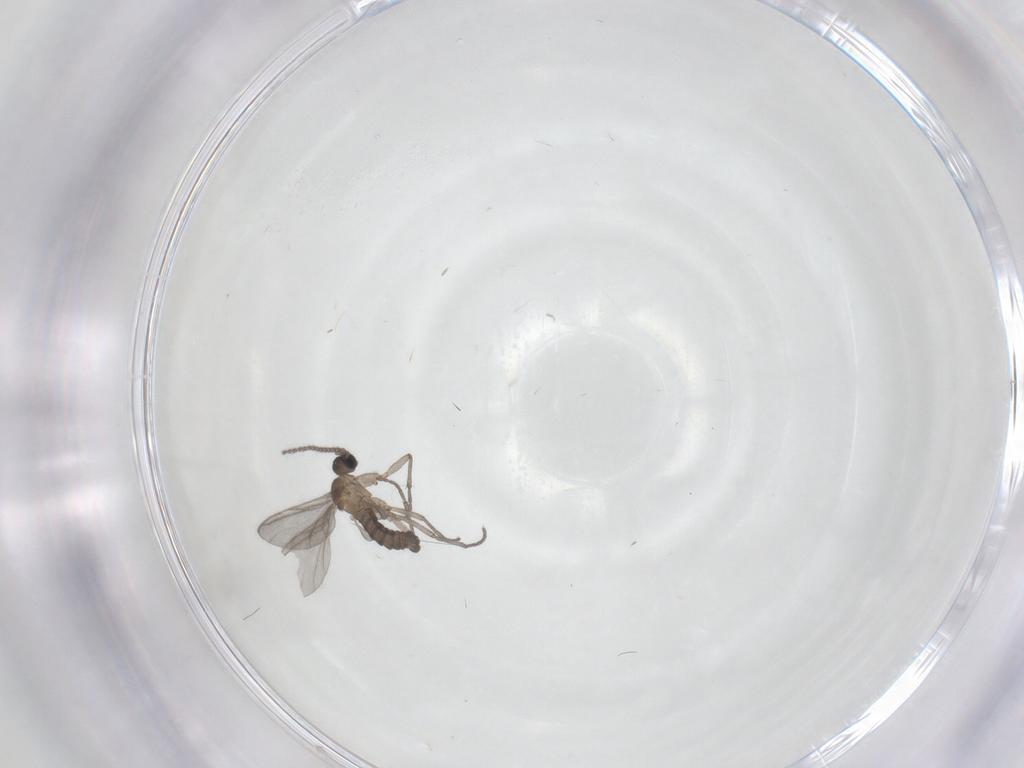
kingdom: Animalia
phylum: Arthropoda
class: Insecta
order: Diptera
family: Sciaridae
